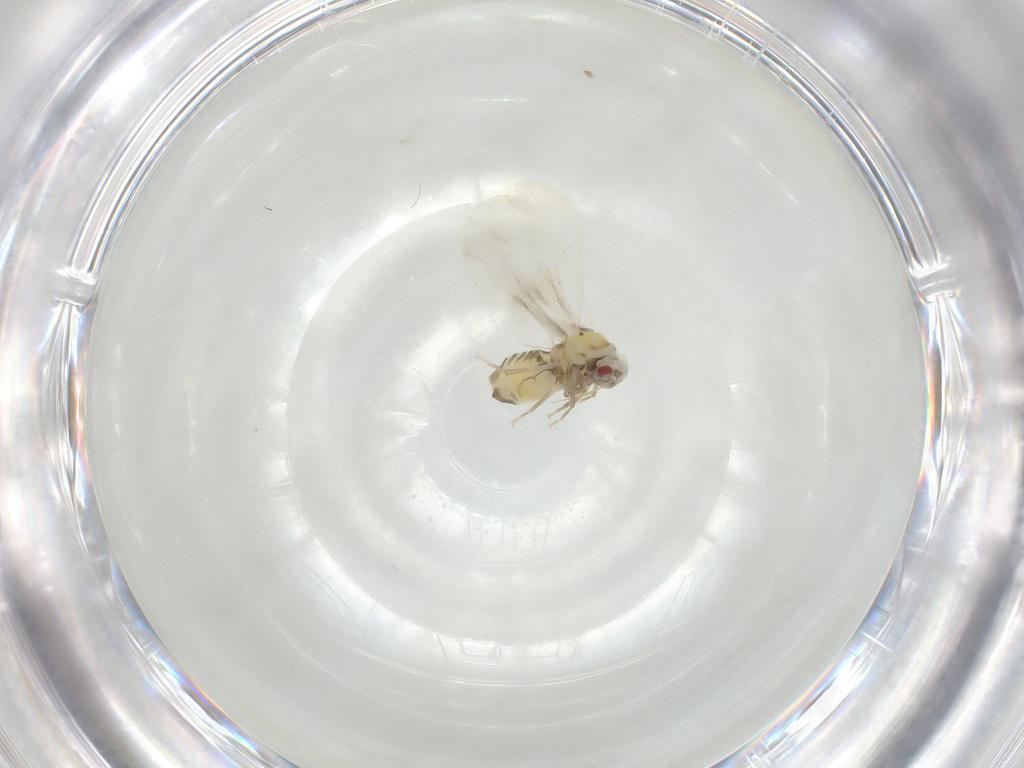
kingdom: Animalia
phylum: Arthropoda
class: Insecta
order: Hemiptera
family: Aleyrodidae
